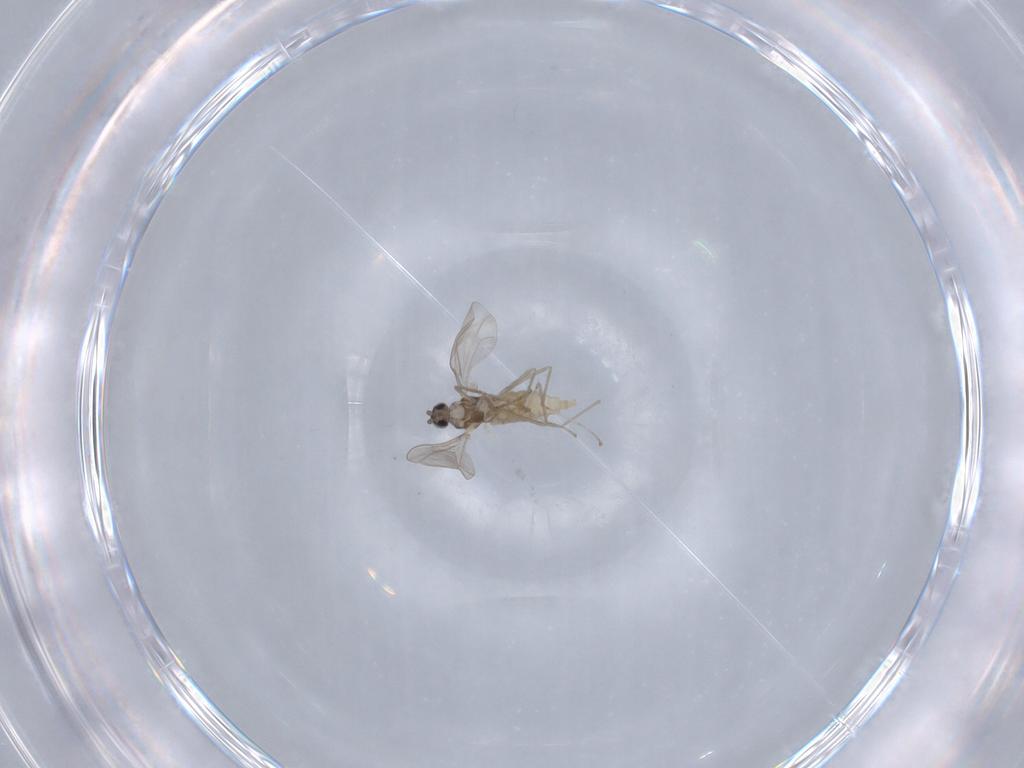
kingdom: Animalia
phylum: Arthropoda
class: Insecta
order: Diptera
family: Cecidomyiidae
